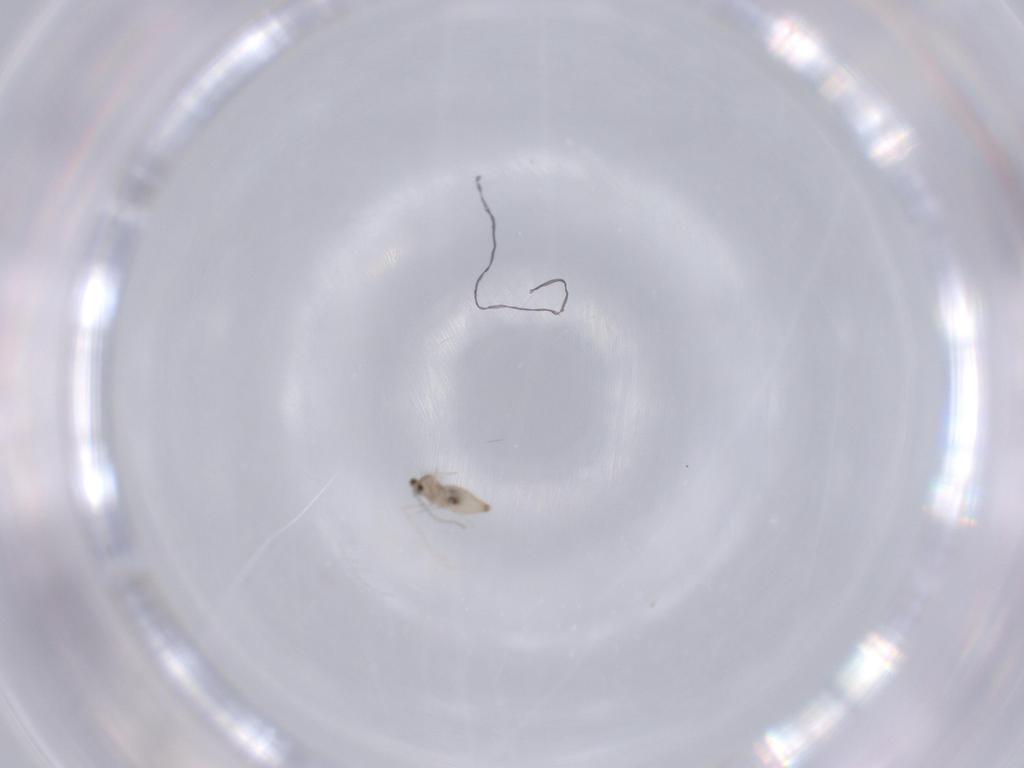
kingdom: Animalia
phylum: Arthropoda
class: Insecta
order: Diptera
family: Cecidomyiidae
